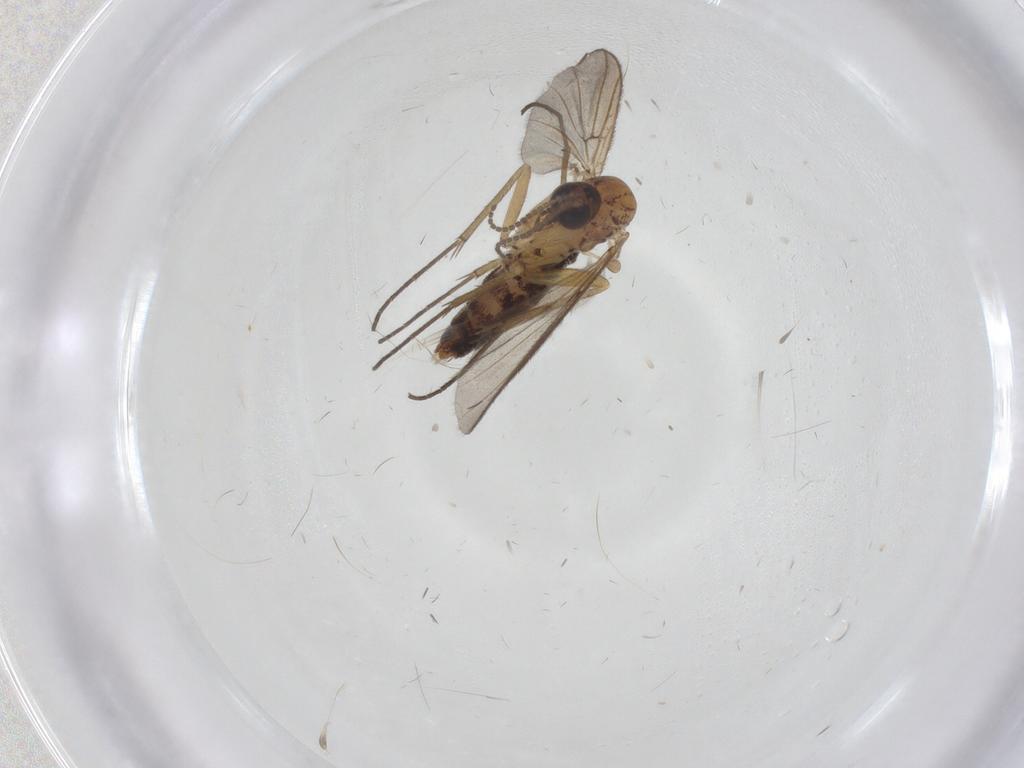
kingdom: Animalia
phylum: Arthropoda
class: Insecta
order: Diptera
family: Mycetophilidae
